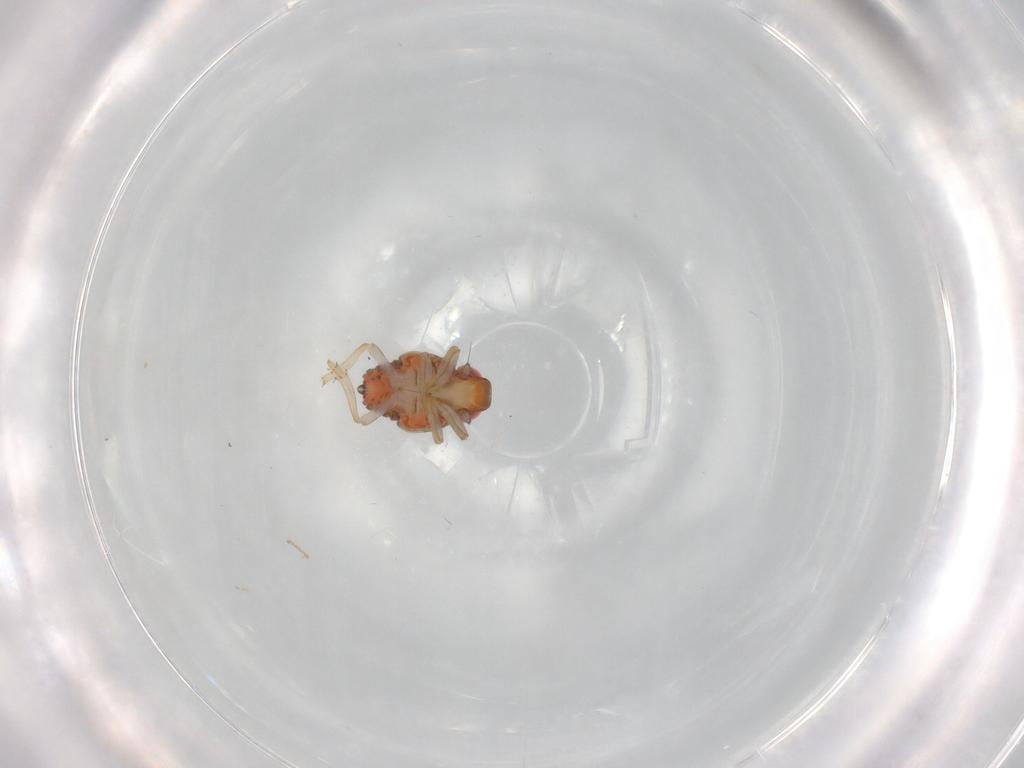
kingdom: Animalia
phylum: Arthropoda
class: Insecta
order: Hemiptera
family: Issidae
